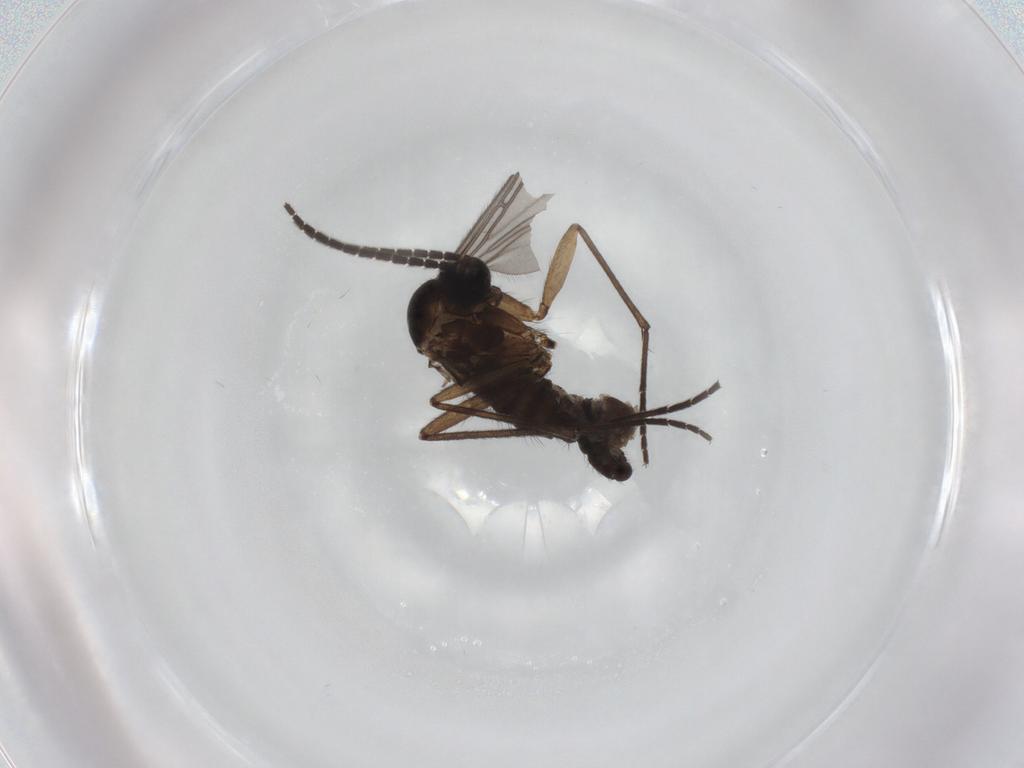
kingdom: Animalia
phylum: Arthropoda
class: Insecta
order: Diptera
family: Sciaridae
